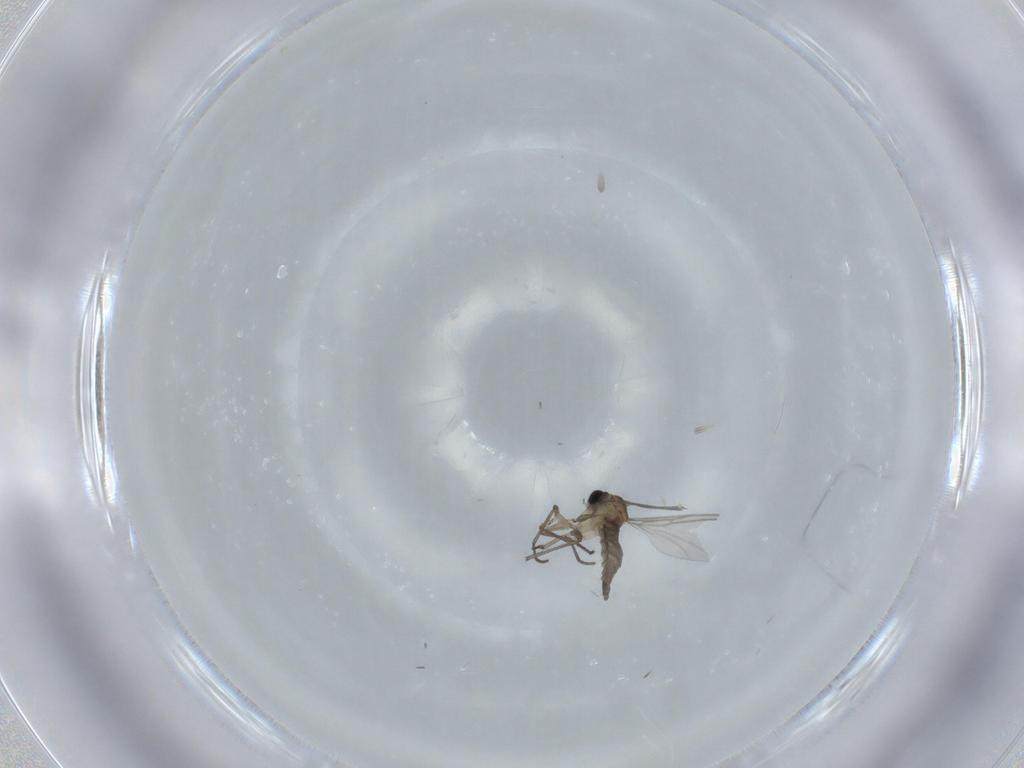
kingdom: Animalia
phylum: Arthropoda
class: Insecta
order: Diptera
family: Sciaridae
